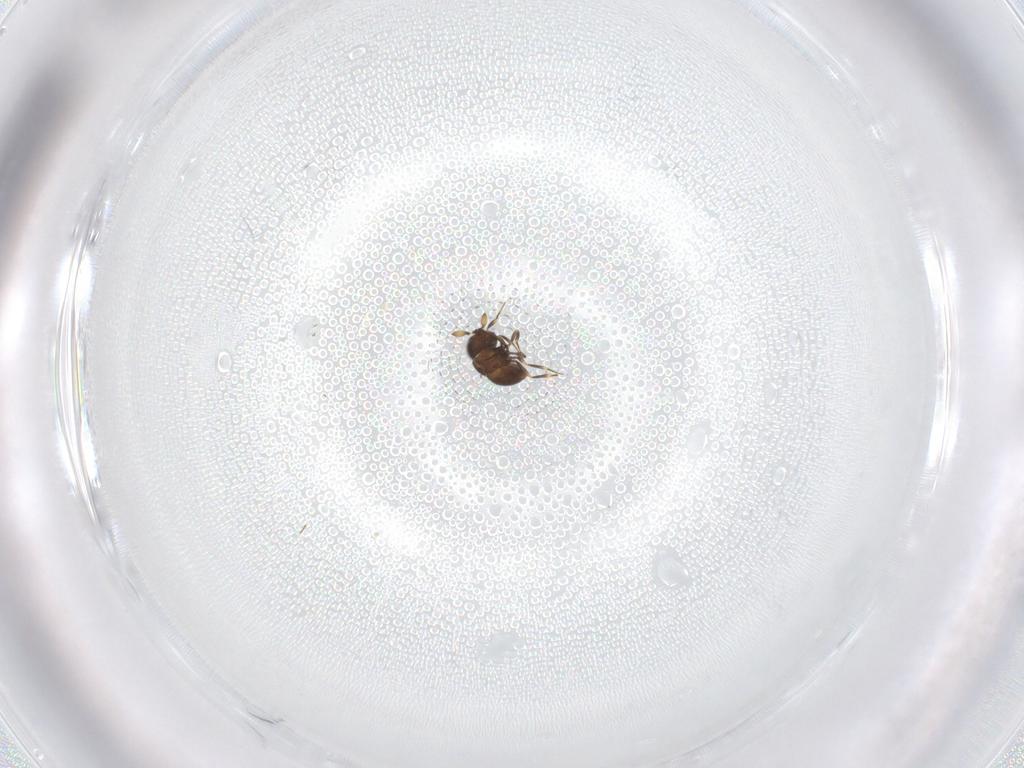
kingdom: Animalia
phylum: Arthropoda
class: Insecta
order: Hymenoptera
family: Scelionidae
